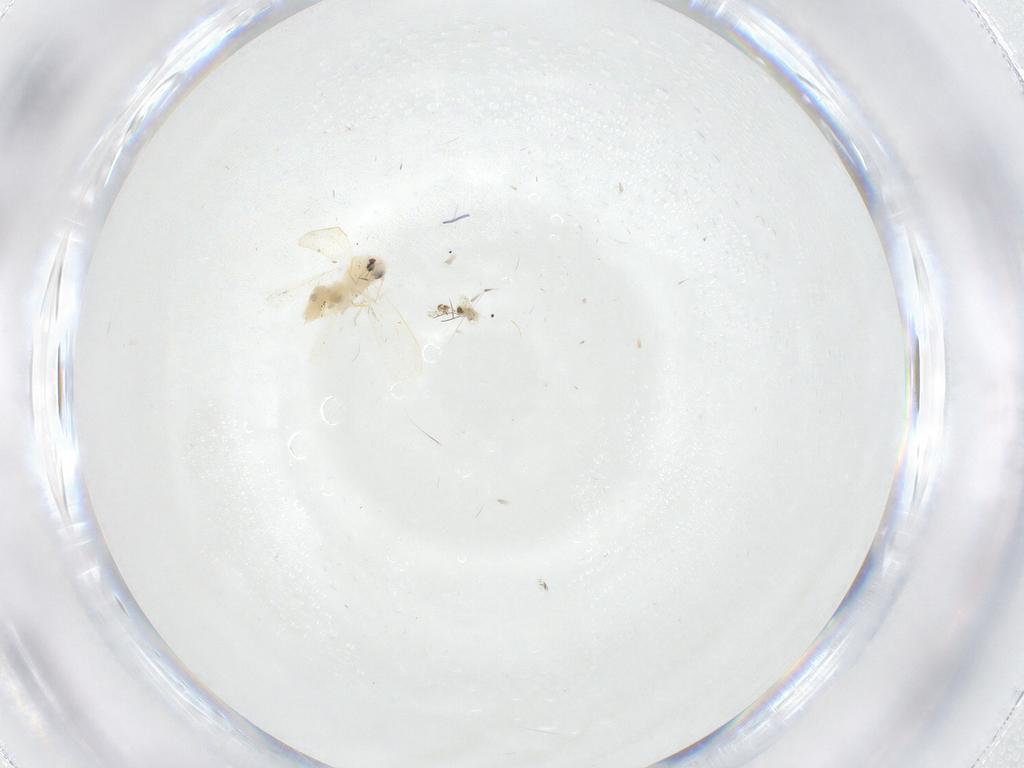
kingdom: Animalia
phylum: Arthropoda
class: Insecta
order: Hemiptera
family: Aleyrodidae
